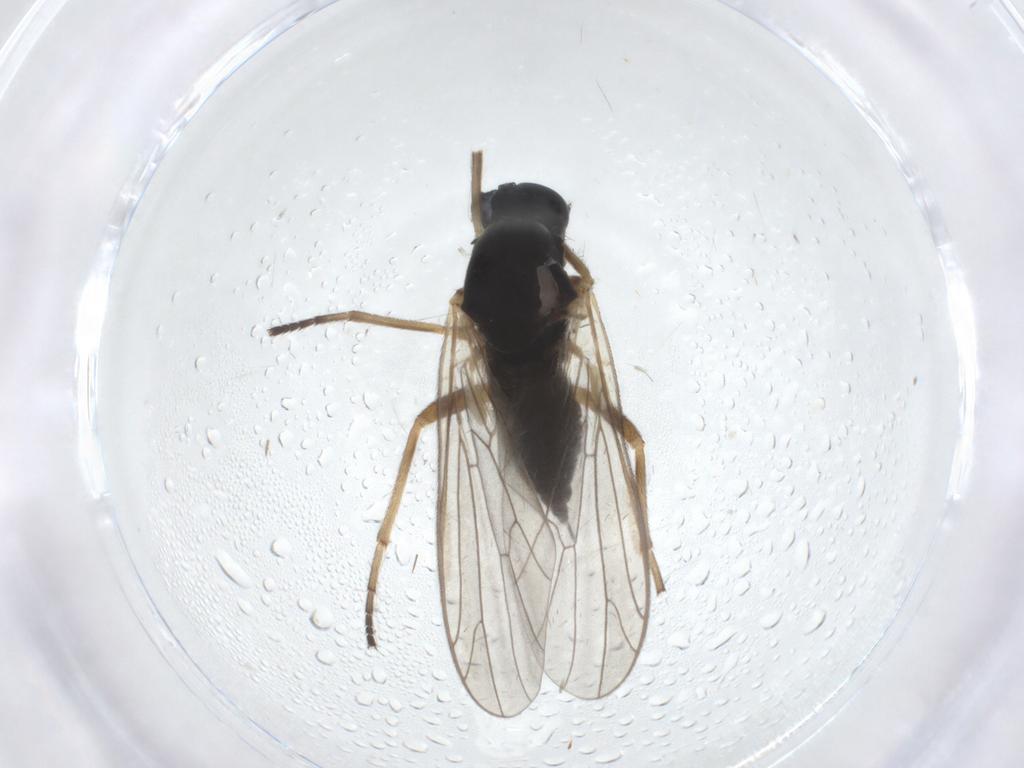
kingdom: Animalia
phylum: Arthropoda
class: Insecta
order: Diptera
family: Empididae
